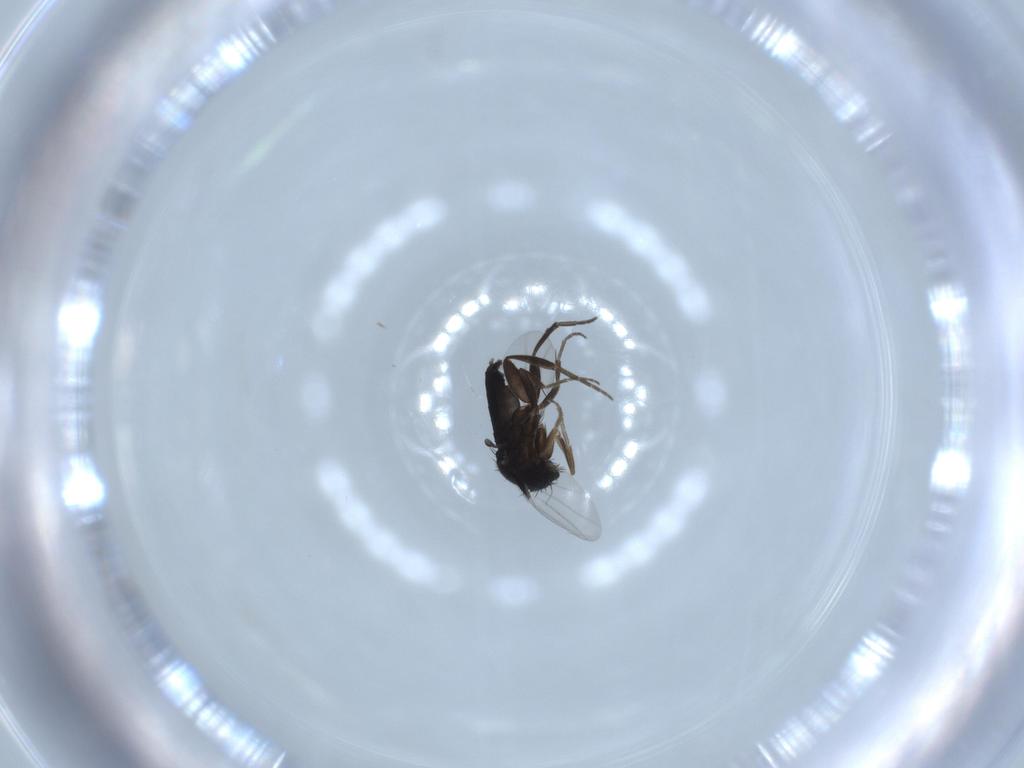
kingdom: Animalia
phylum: Arthropoda
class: Insecta
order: Diptera
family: Phoridae
